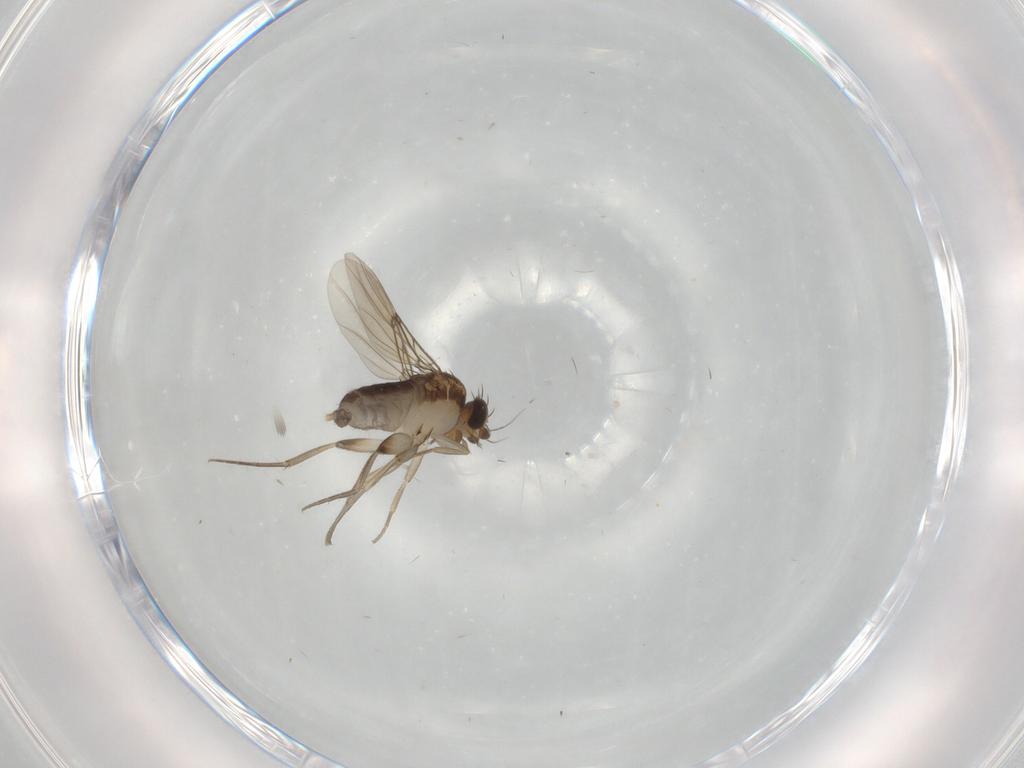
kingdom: Animalia
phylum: Arthropoda
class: Insecta
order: Diptera
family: Phoridae
